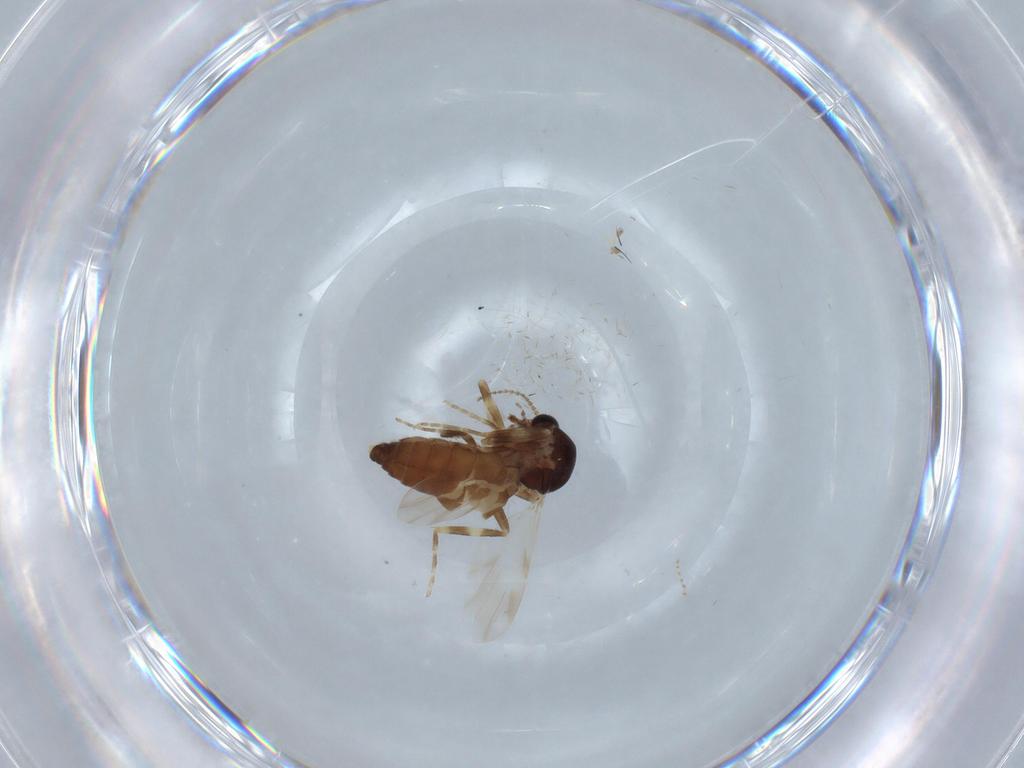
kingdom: Animalia
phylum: Arthropoda
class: Insecta
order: Diptera
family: Ceratopogonidae
